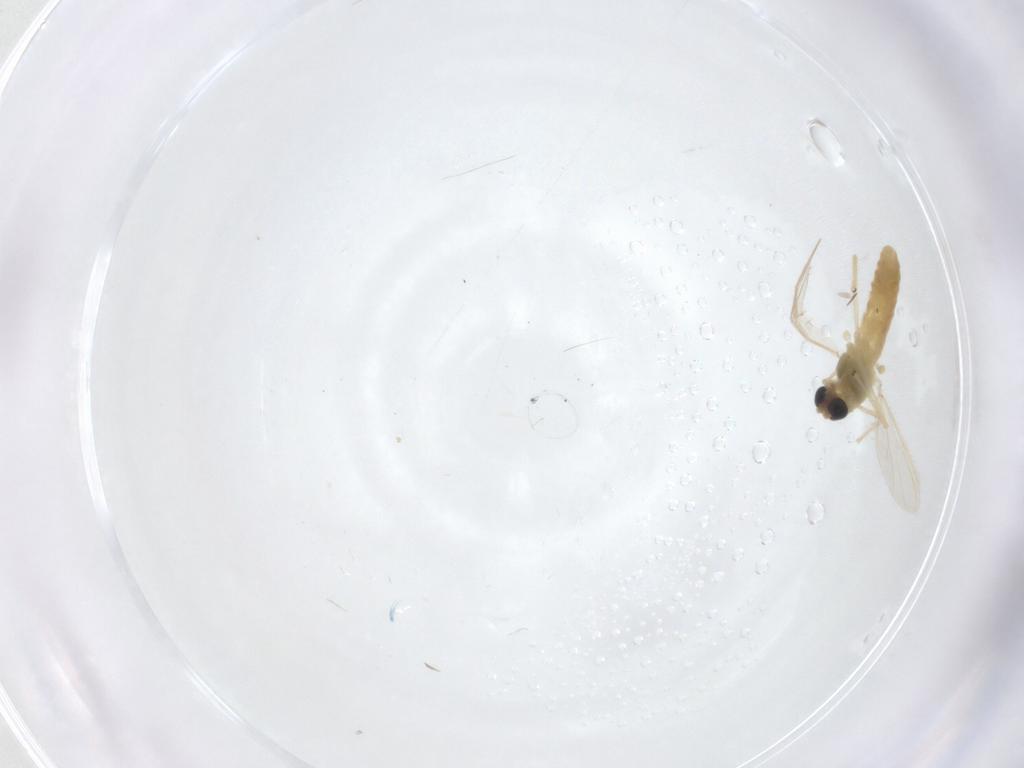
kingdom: Animalia
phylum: Arthropoda
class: Insecta
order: Diptera
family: Chironomidae
